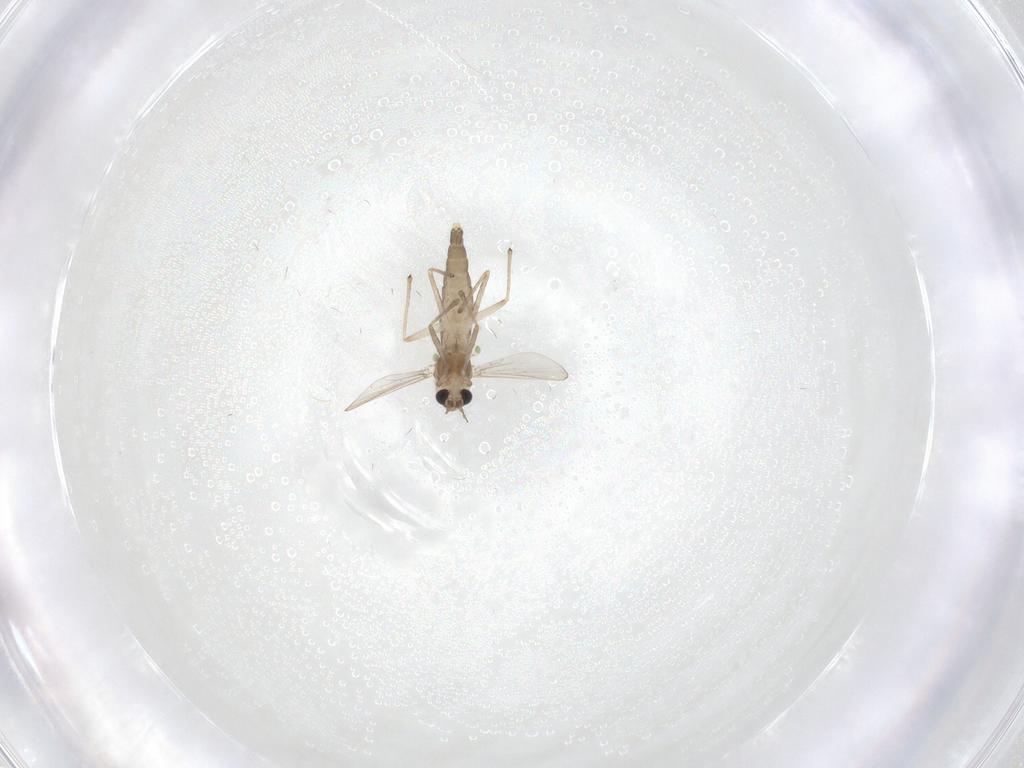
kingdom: Animalia
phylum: Arthropoda
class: Insecta
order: Diptera
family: Chironomidae
